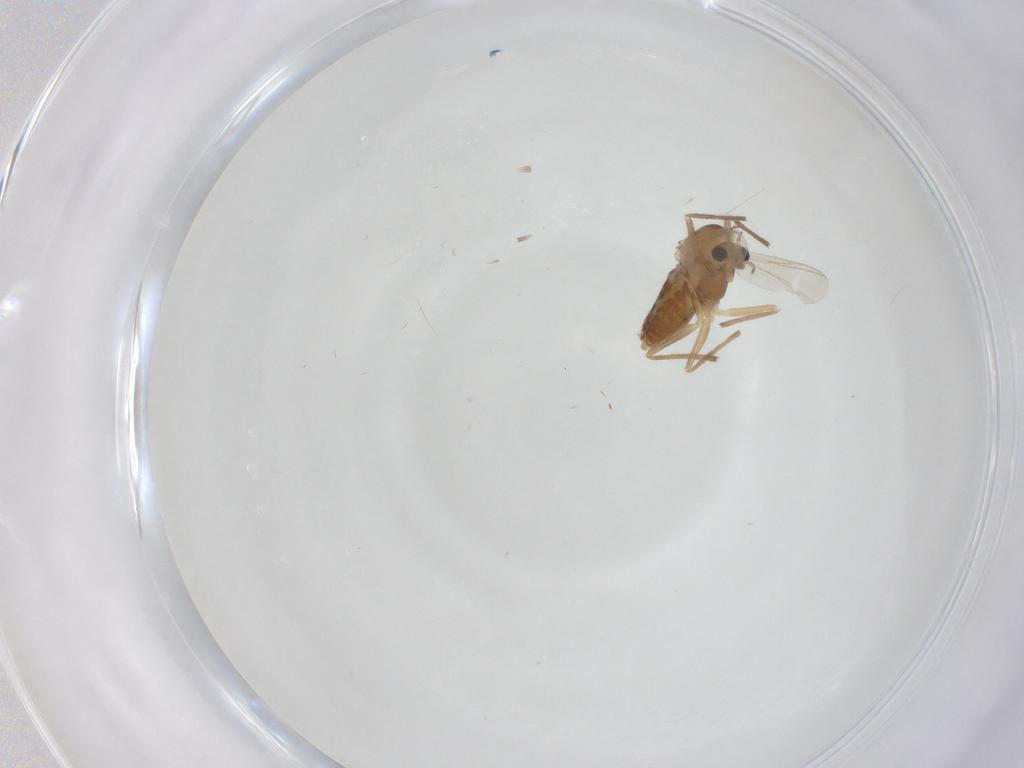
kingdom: Animalia
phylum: Arthropoda
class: Insecta
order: Diptera
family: Chironomidae
